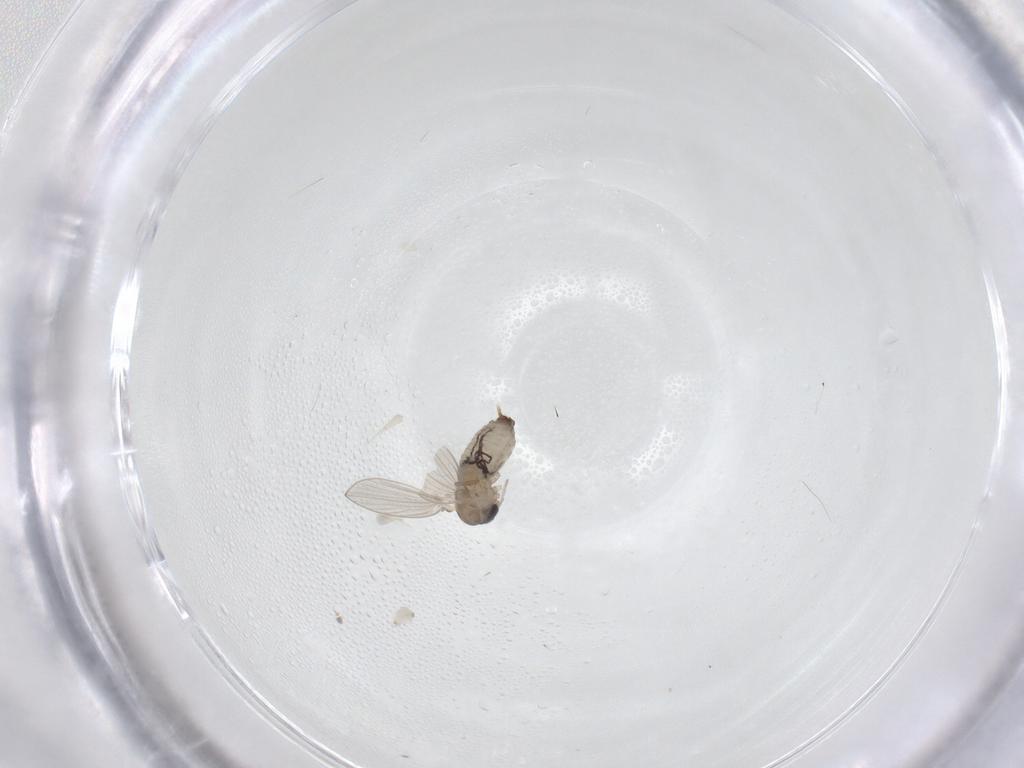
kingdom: Animalia
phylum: Arthropoda
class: Insecta
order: Diptera
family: Psychodidae
